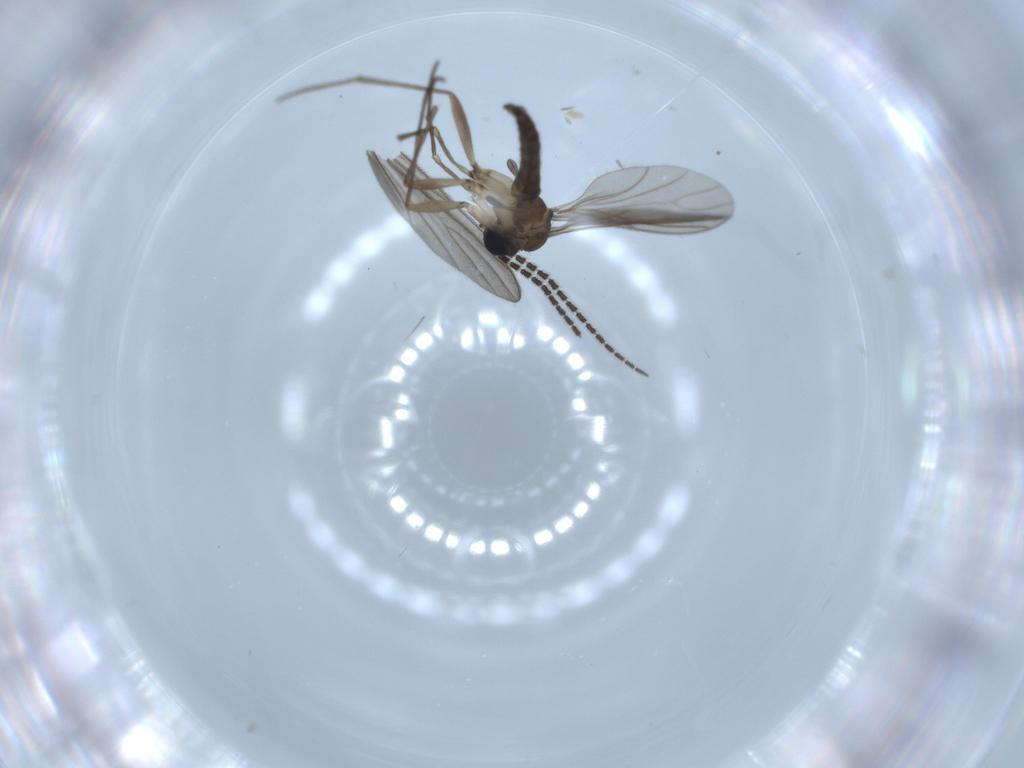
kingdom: Animalia
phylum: Arthropoda
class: Insecta
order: Diptera
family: Sciaridae
